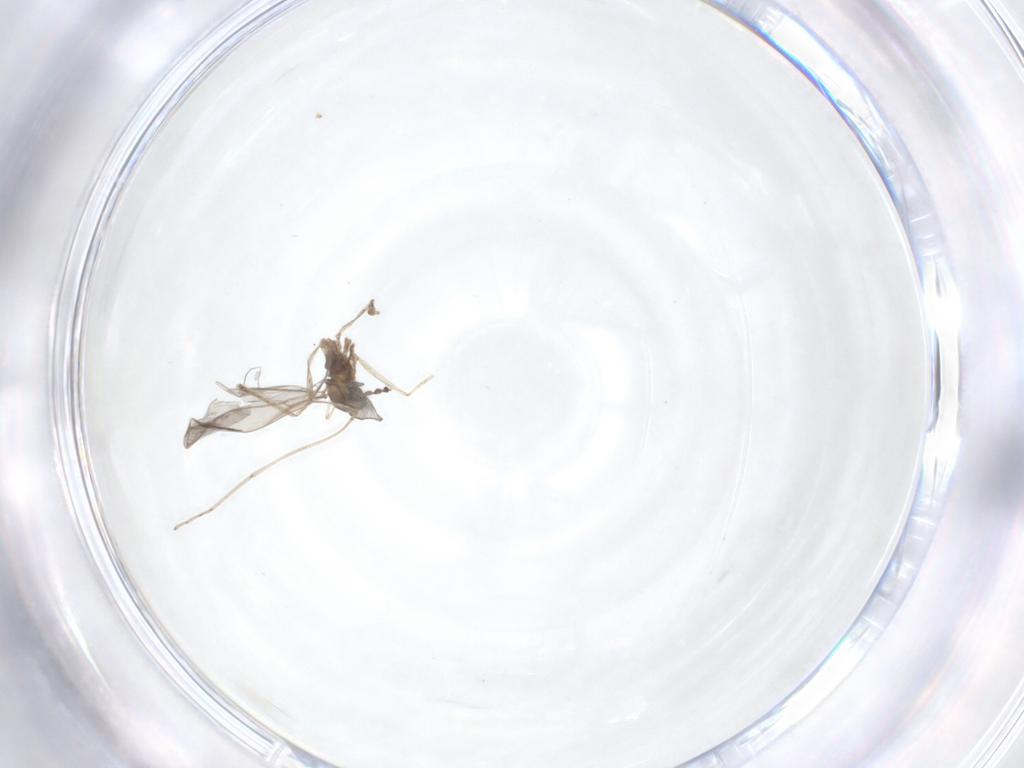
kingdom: Animalia
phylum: Arthropoda
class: Insecta
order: Diptera
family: Cecidomyiidae
